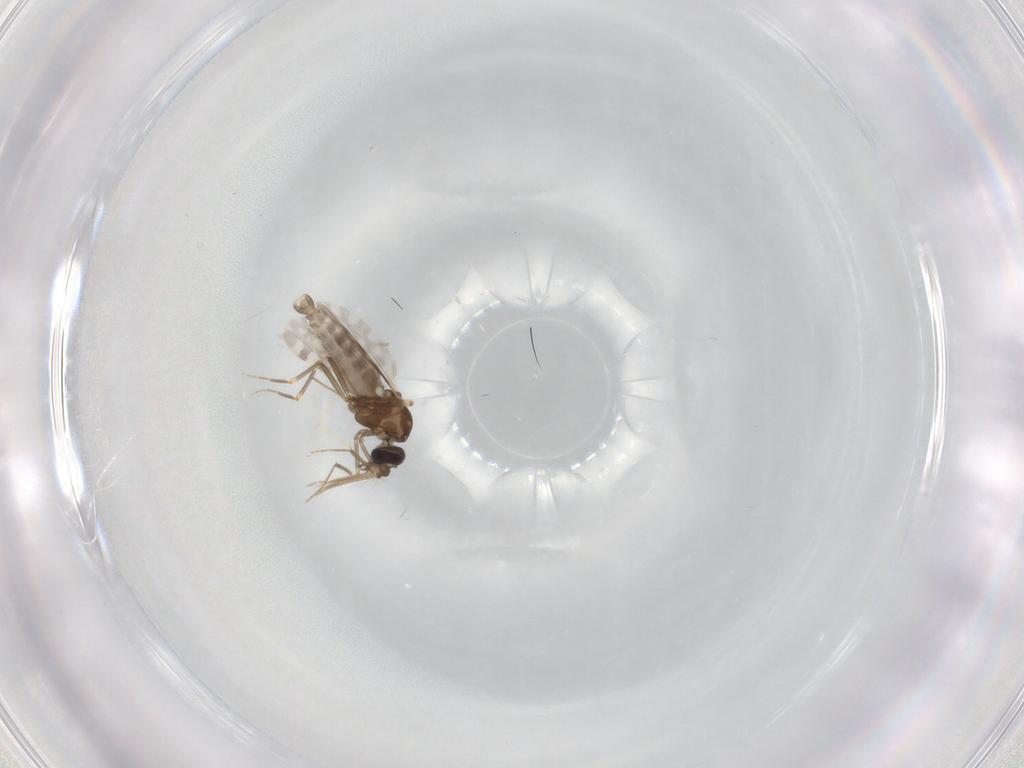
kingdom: Animalia
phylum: Arthropoda
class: Insecta
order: Diptera
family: Ceratopogonidae
